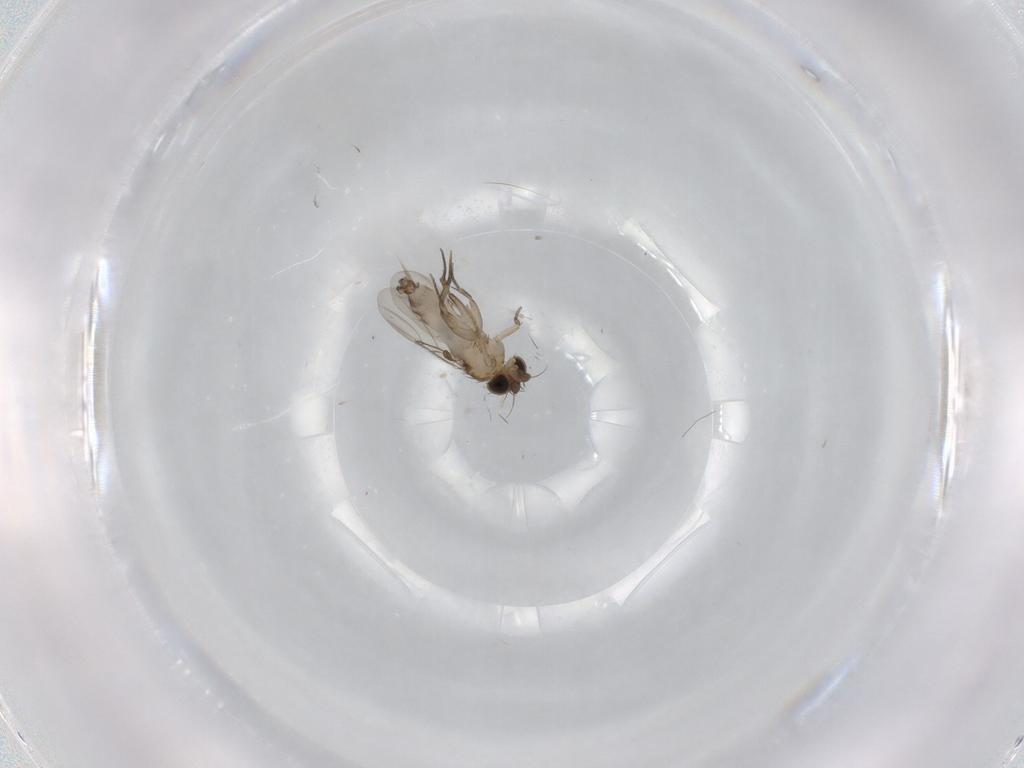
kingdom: Animalia
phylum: Arthropoda
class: Insecta
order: Diptera
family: Phoridae
